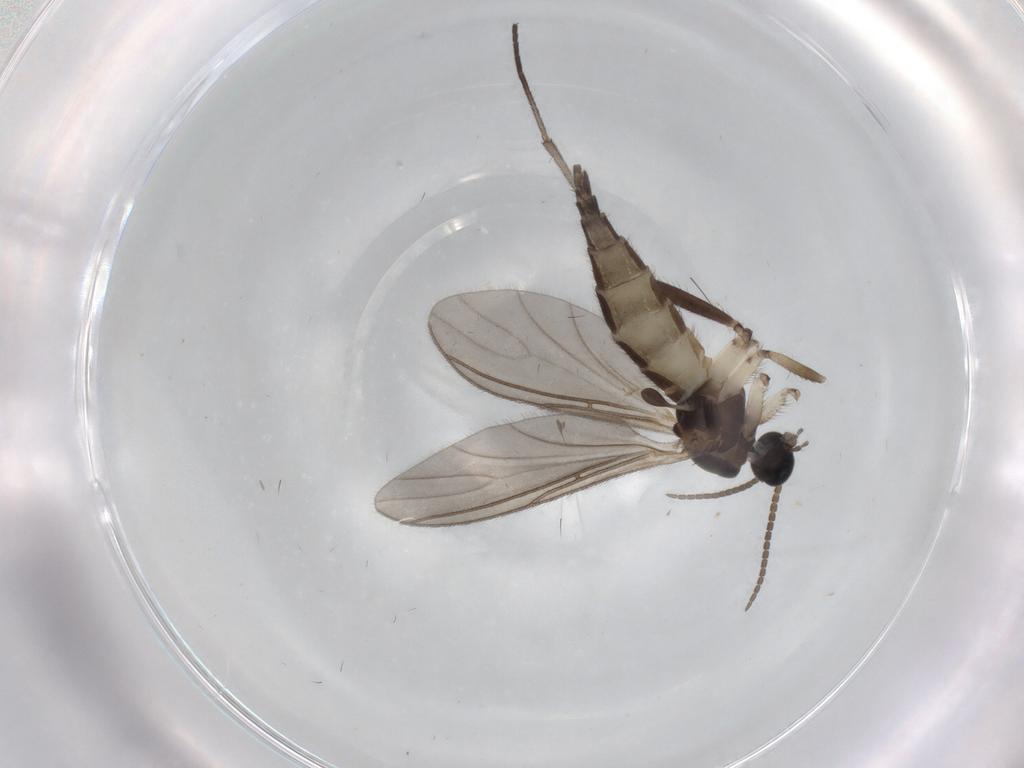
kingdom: Animalia
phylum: Arthropoda
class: Insecta
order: Diptera
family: Sciaridae
